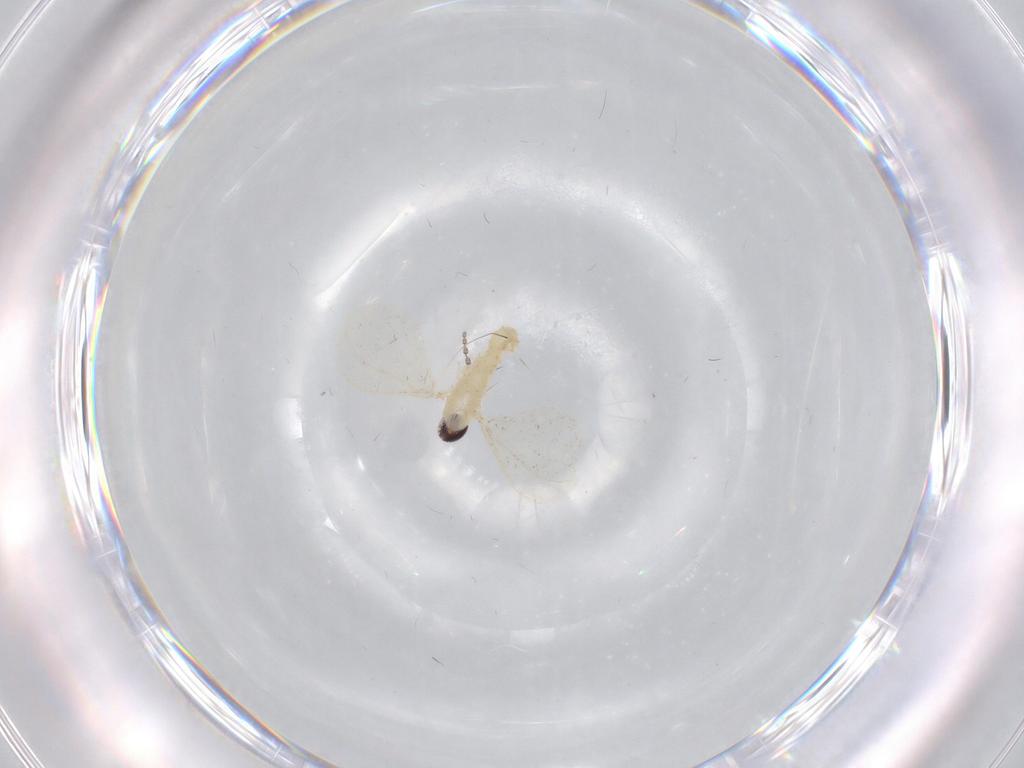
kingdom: Animalia
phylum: Arthropoda
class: Insecta
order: Diptera
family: Cecidomyiidae
